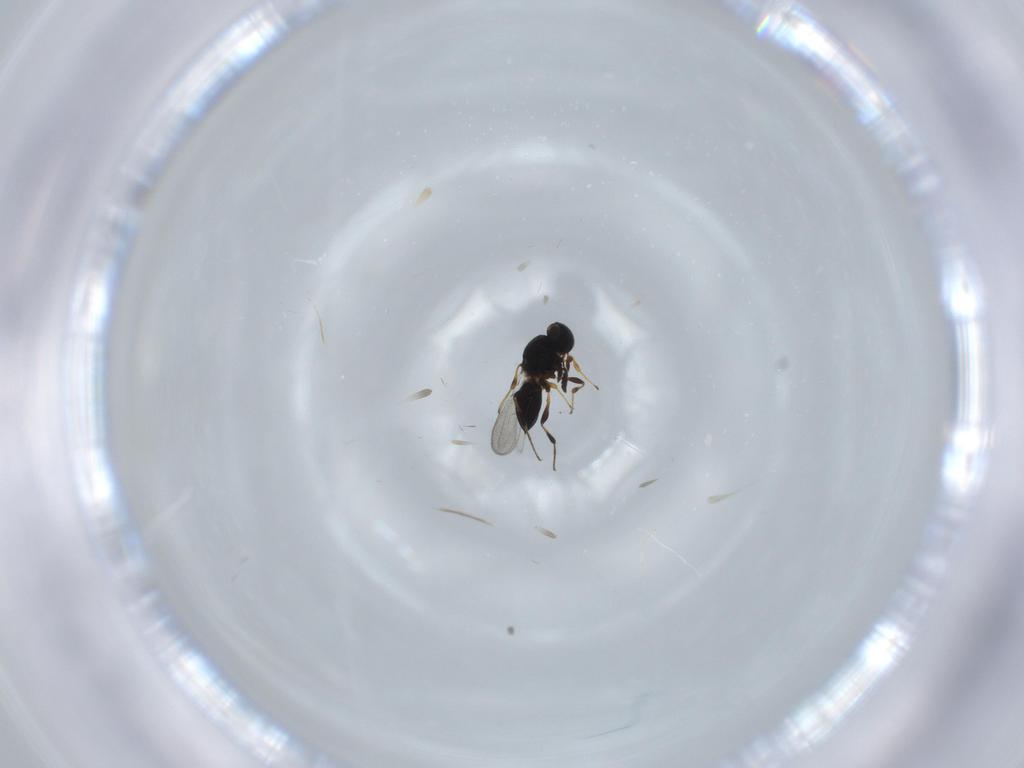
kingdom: Animalia
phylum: Arthropoda
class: Insecta
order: Hymenoptera
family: Platygastridae
